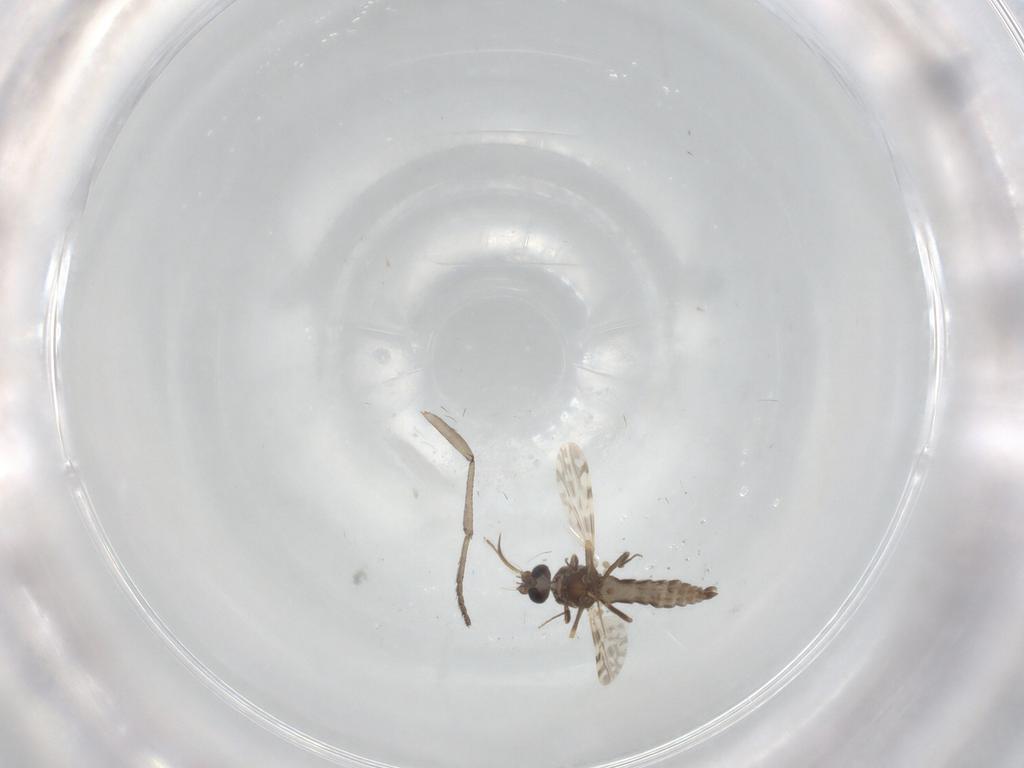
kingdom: Animalia
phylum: Arthropoda
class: Insecta
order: Diptera
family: Ceratopogonidae
